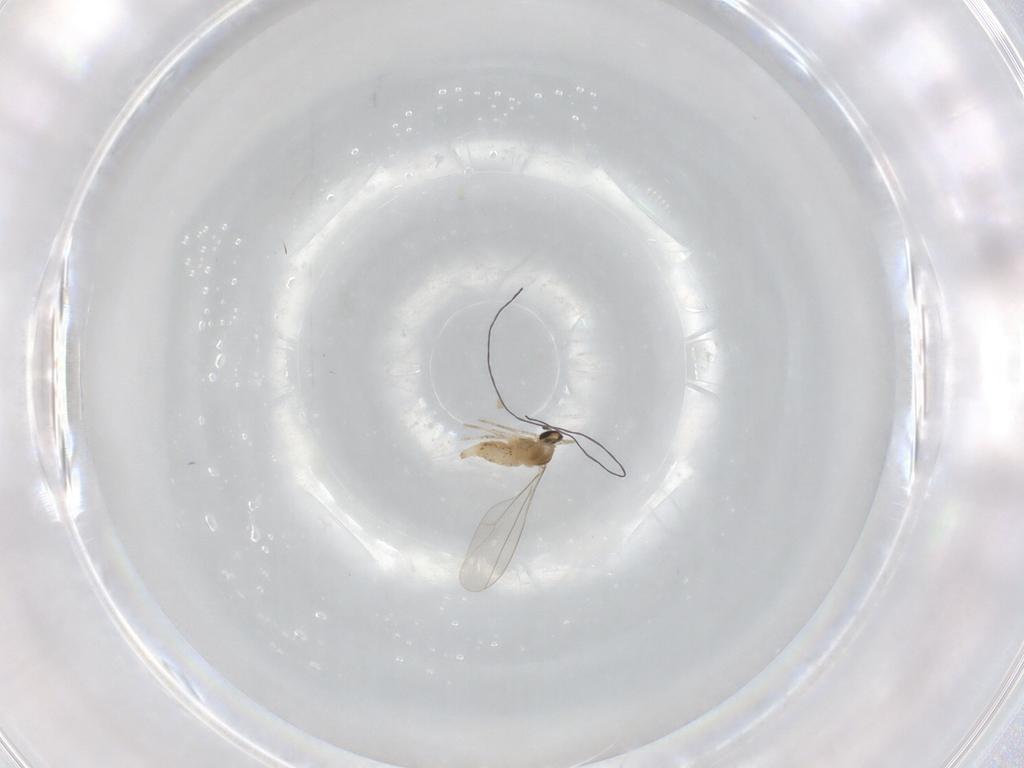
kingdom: Animalia
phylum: Arthropoda
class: Insecta
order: Diptera
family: Cecidomyiidae
